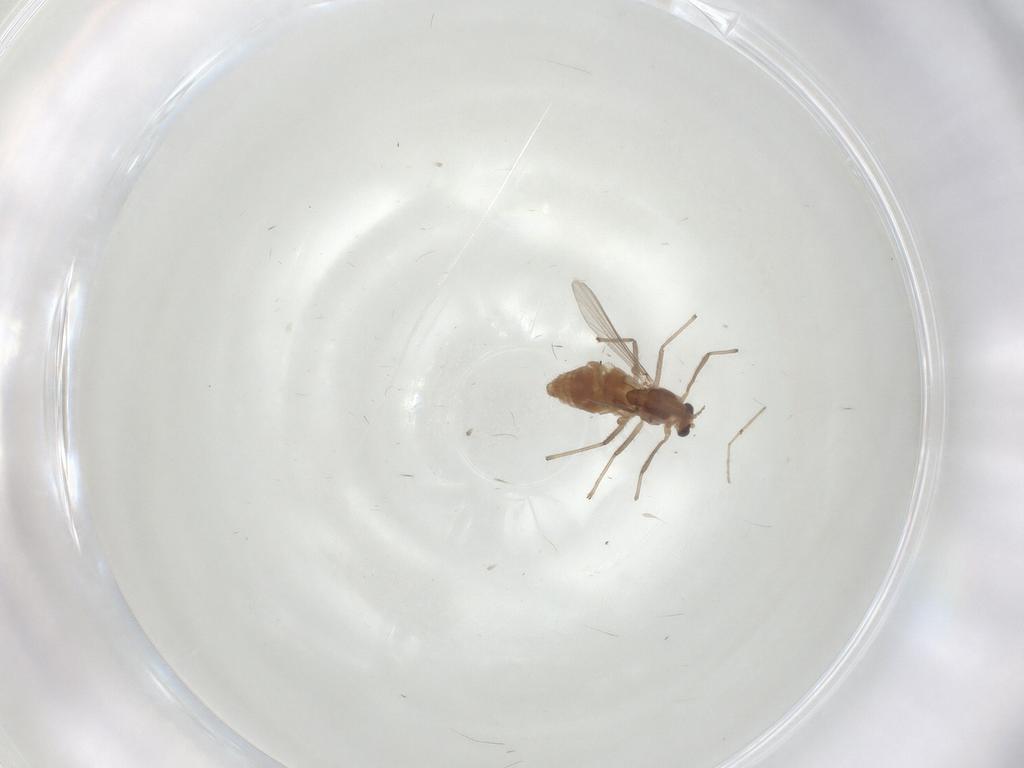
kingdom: Animalia
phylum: Arthropoda
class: Insecta
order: Diptera
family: Chironomidae
